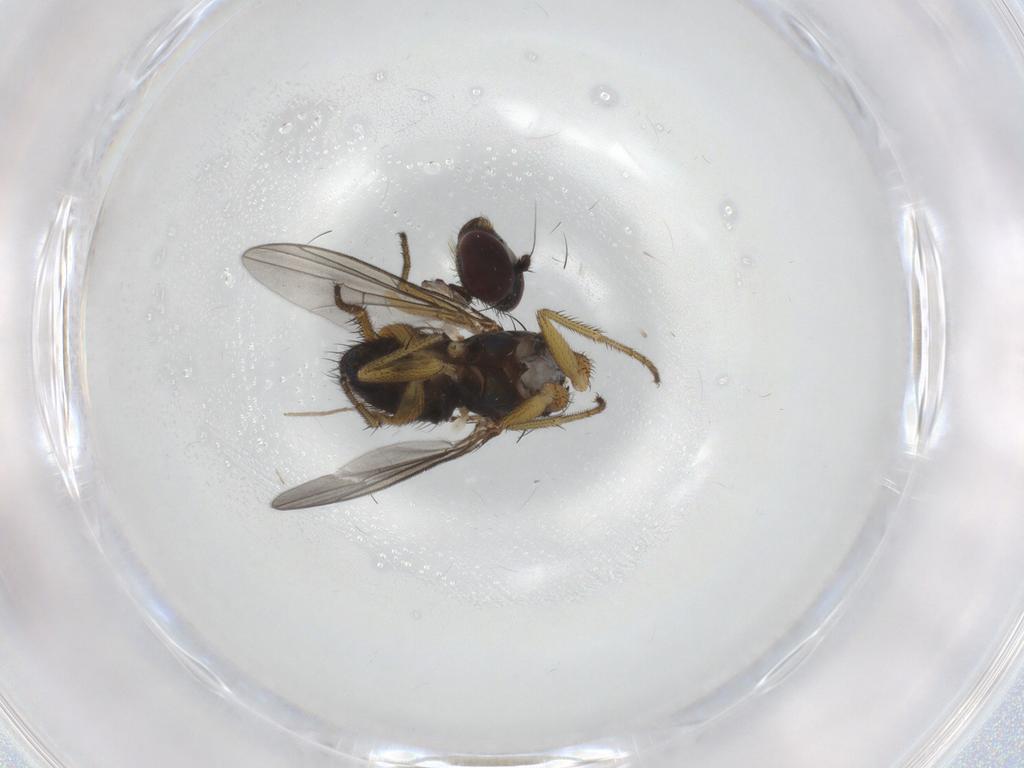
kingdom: Animalia
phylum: Arthropoda
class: Insecta
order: Diptera
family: Dolichopodidae
